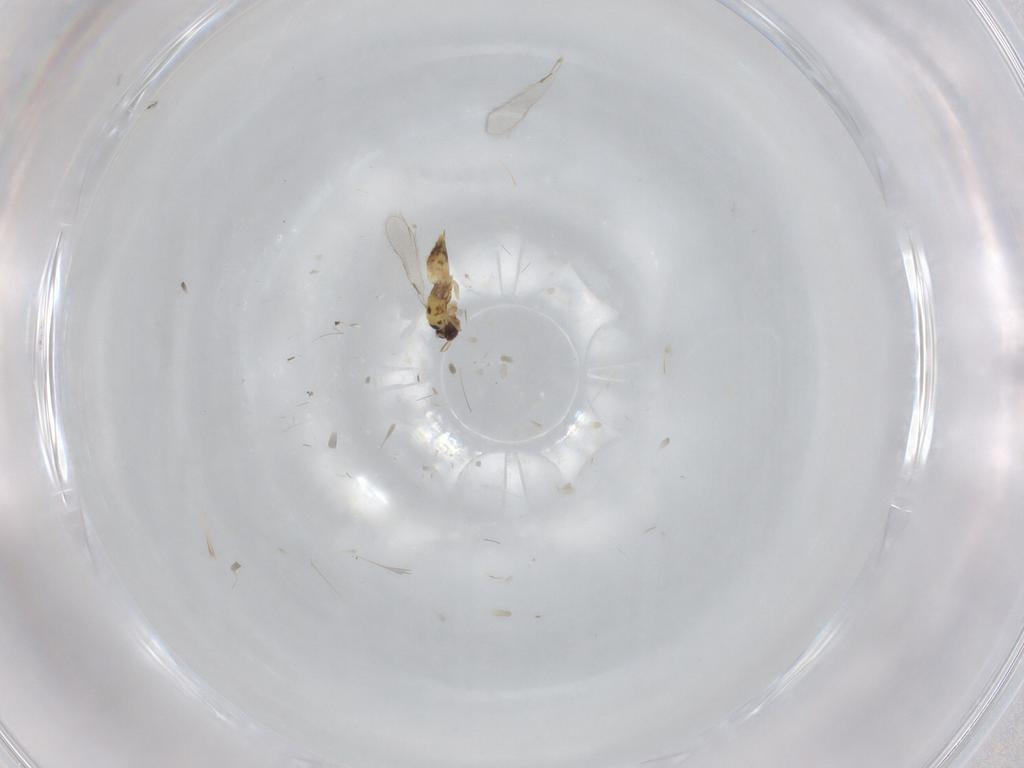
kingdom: Animalia
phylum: Arthropoda
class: Insecta
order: Hymenoptera
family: Mymaridae
